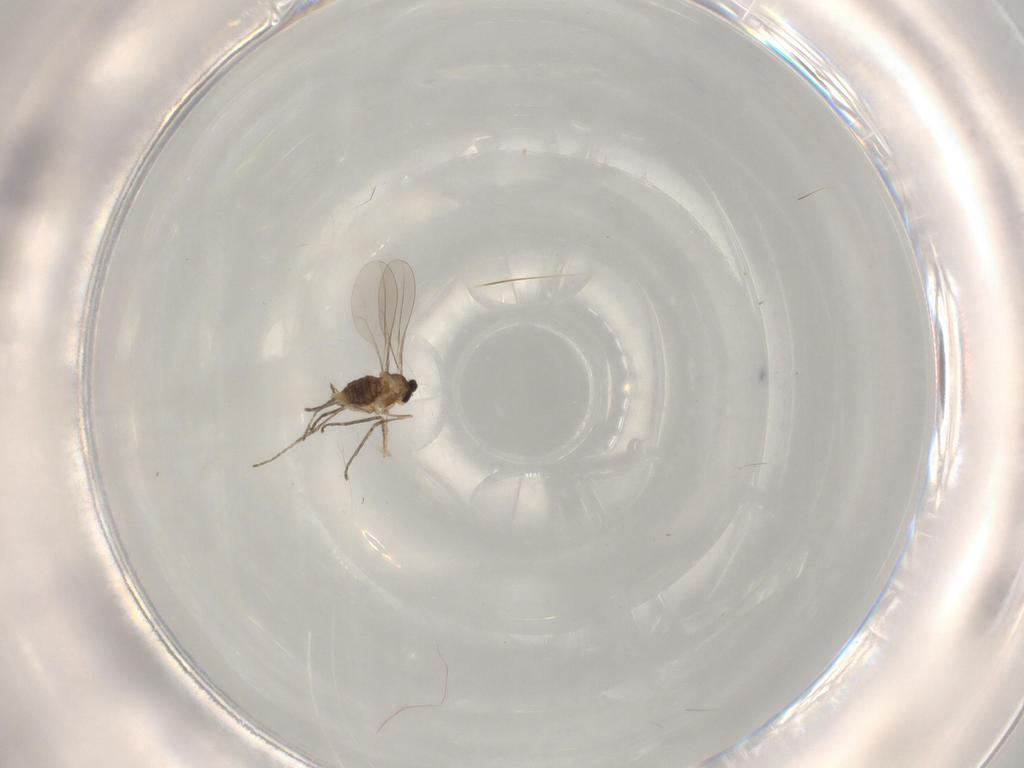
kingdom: Animalia
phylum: Arthropoda
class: Insecta
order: Diptera
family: Cecidomyiidae
